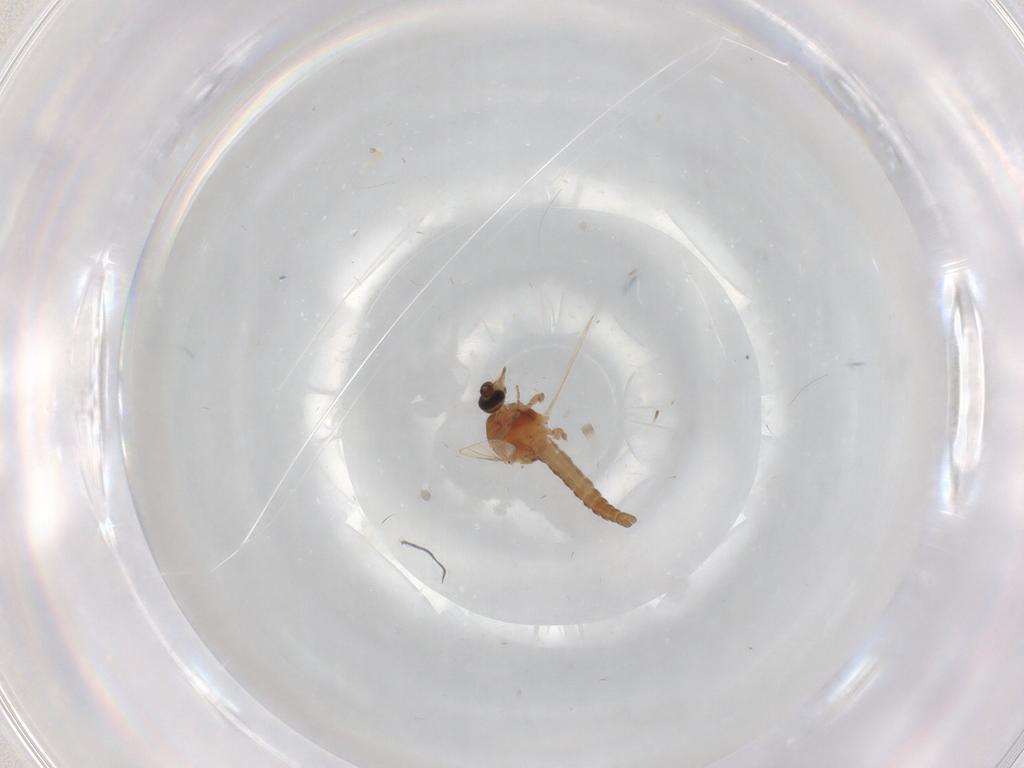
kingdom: Animalia
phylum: Arthropoda
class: Insecta
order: Diptera
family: Ceratopogonidae
